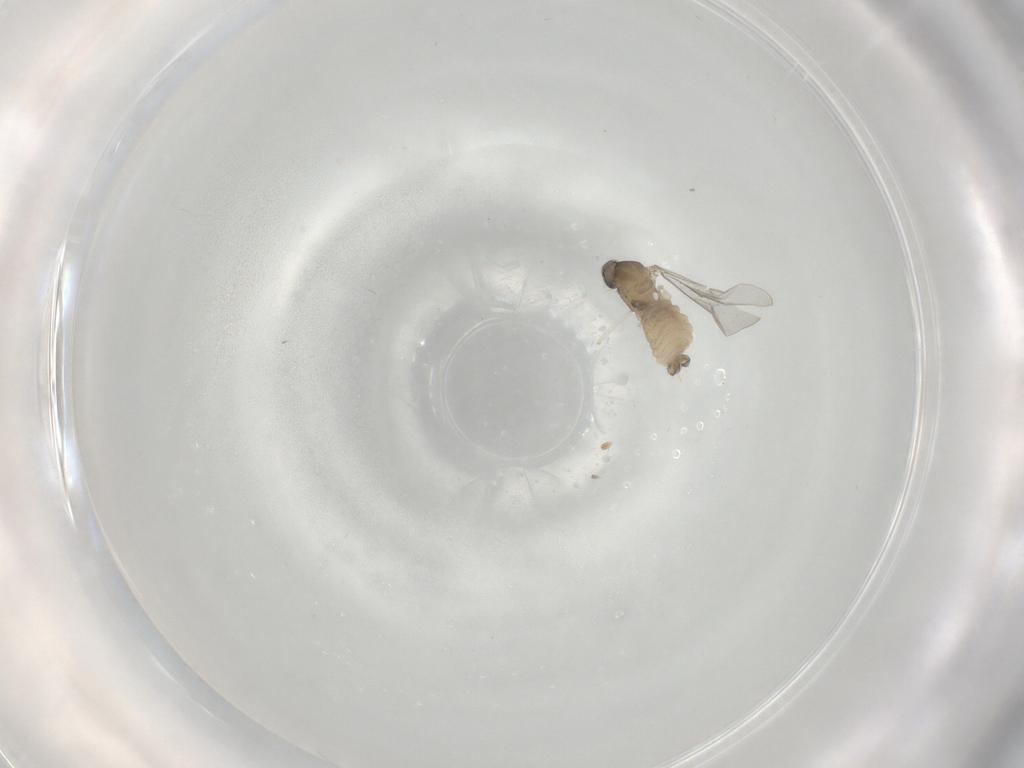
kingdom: Animalia
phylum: Arthropoda
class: Insecta
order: Diptera
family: Cecidomyiidae
